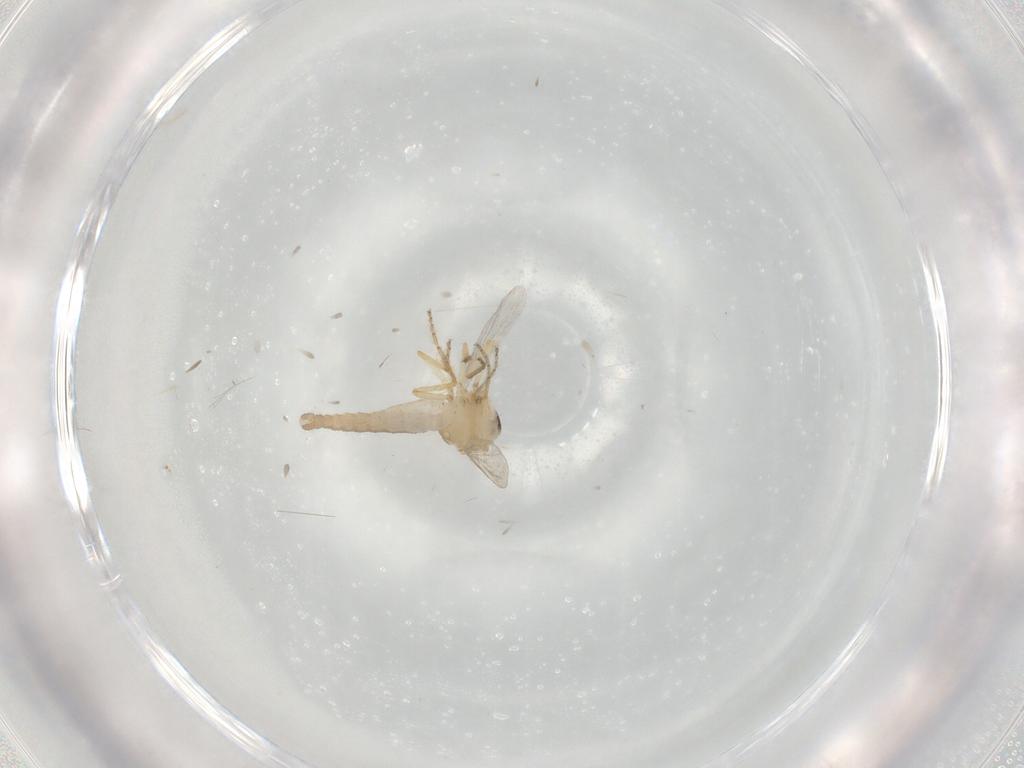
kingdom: Animalia
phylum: Arthropoda
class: Insecta
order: Diptera
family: Ceratopogonidae
